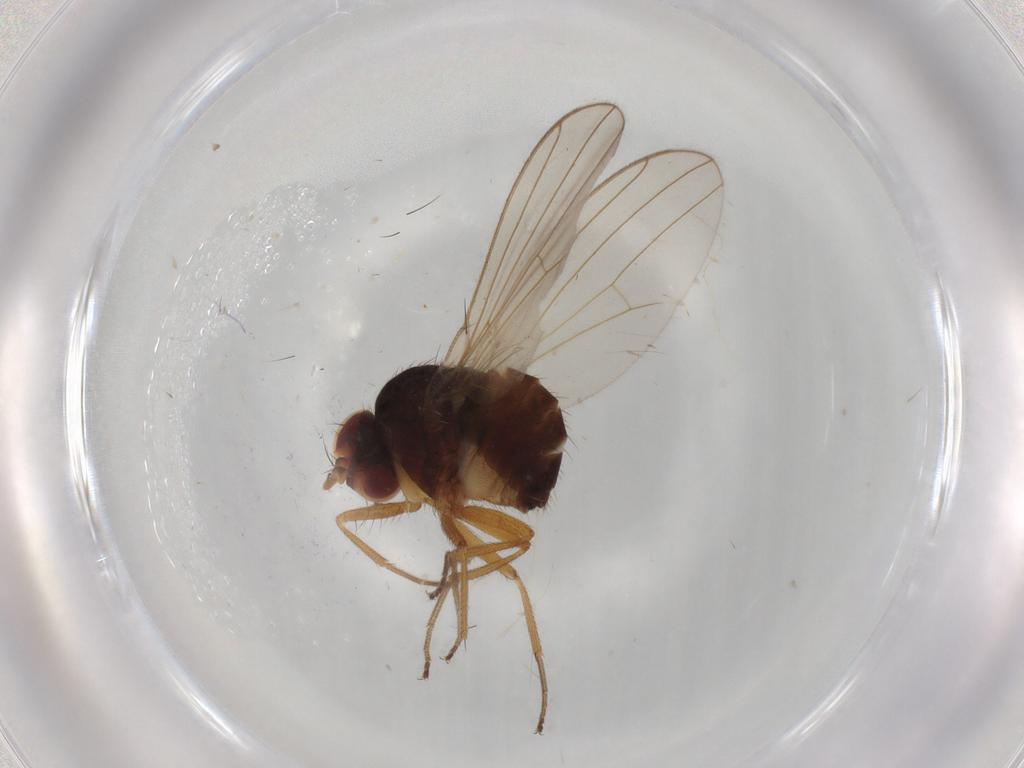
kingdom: Animalia
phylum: Arthropoda
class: Insecta
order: Diptera
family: Drosophilidae
